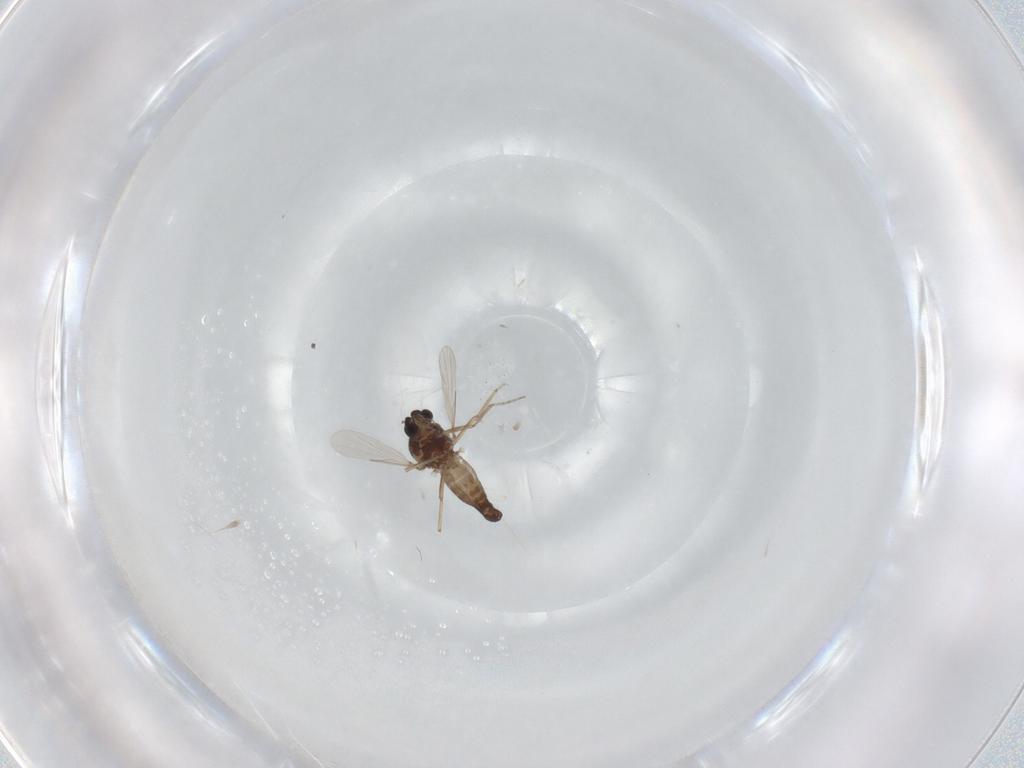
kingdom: Animalia
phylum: Arthropoda
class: Insecta
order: Diptera
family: Ceratopogonidae
